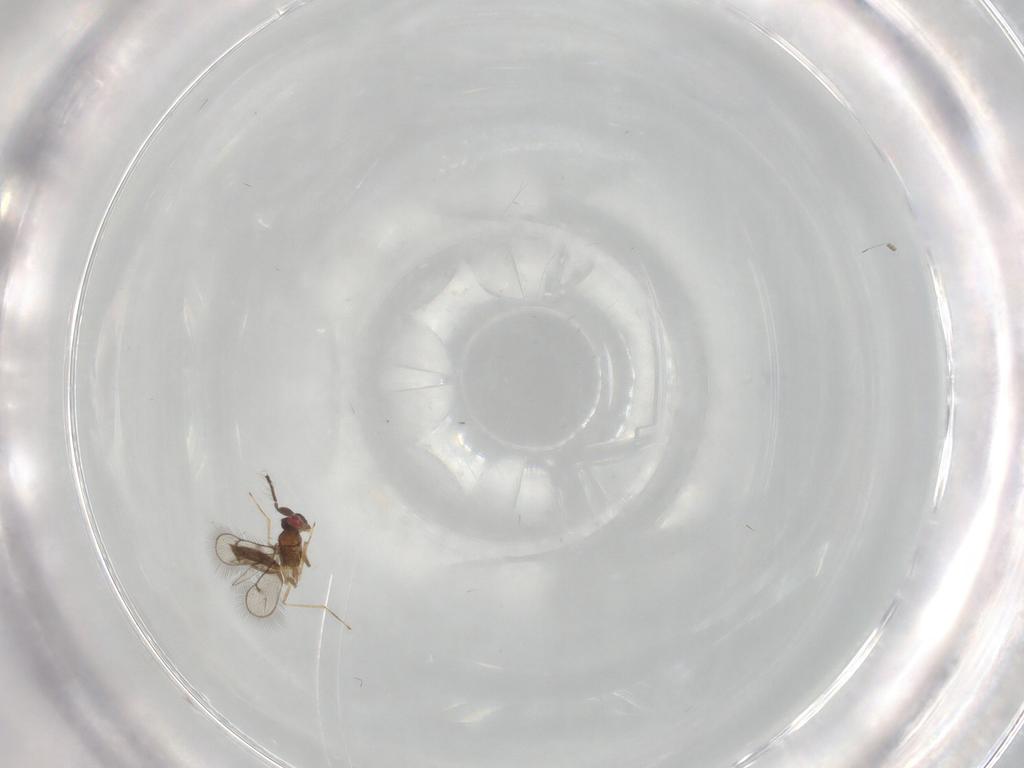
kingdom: Animalia
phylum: Arthropoda
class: Insecta
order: Hymenoptera
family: Eulophidae
